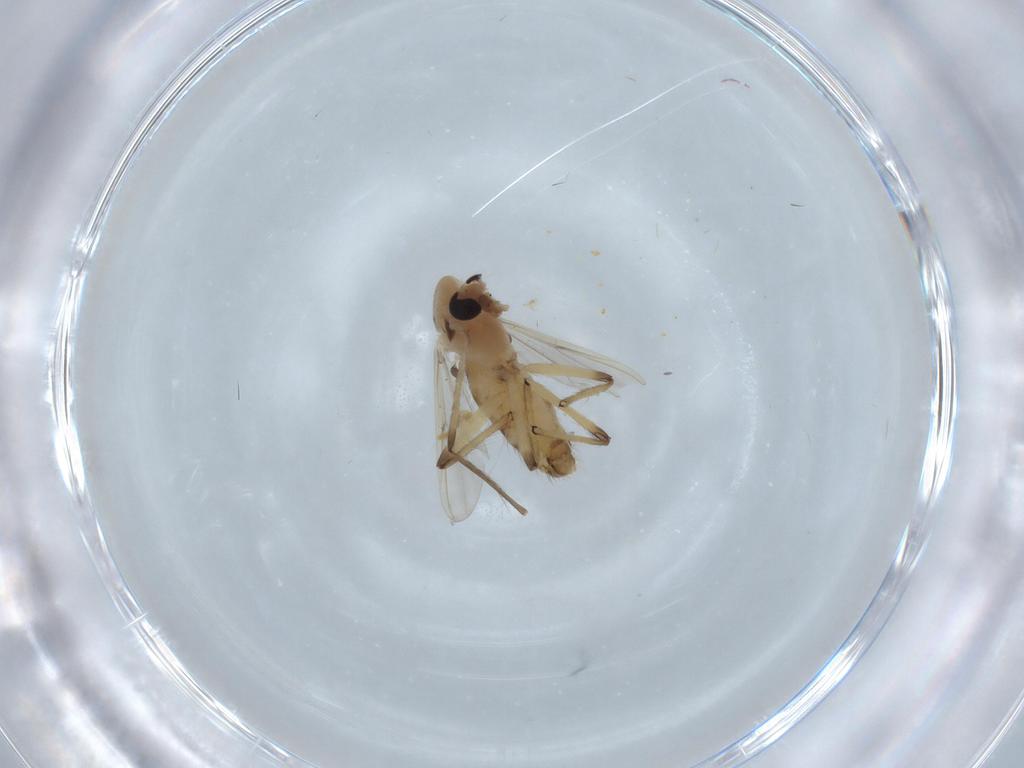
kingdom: Animalia
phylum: Arthropoda
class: Insecta
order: Diptera
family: Chironomidae
